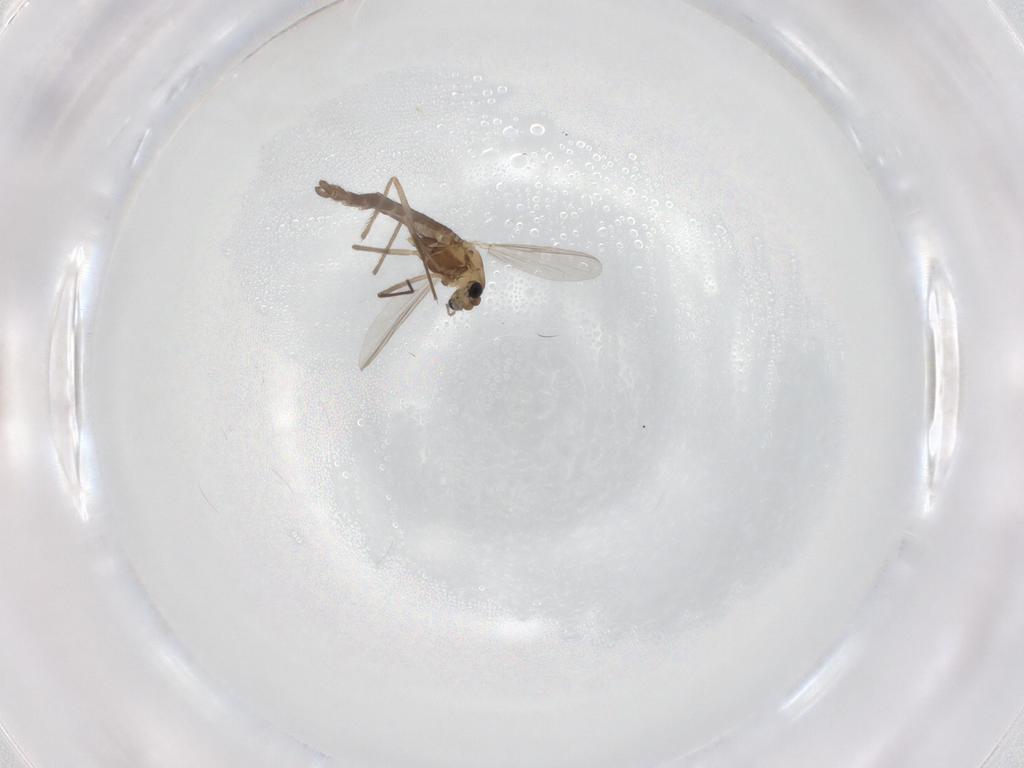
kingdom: Animalia
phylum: Arthropoda
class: Insecta
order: Diptera
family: Chironomidae
